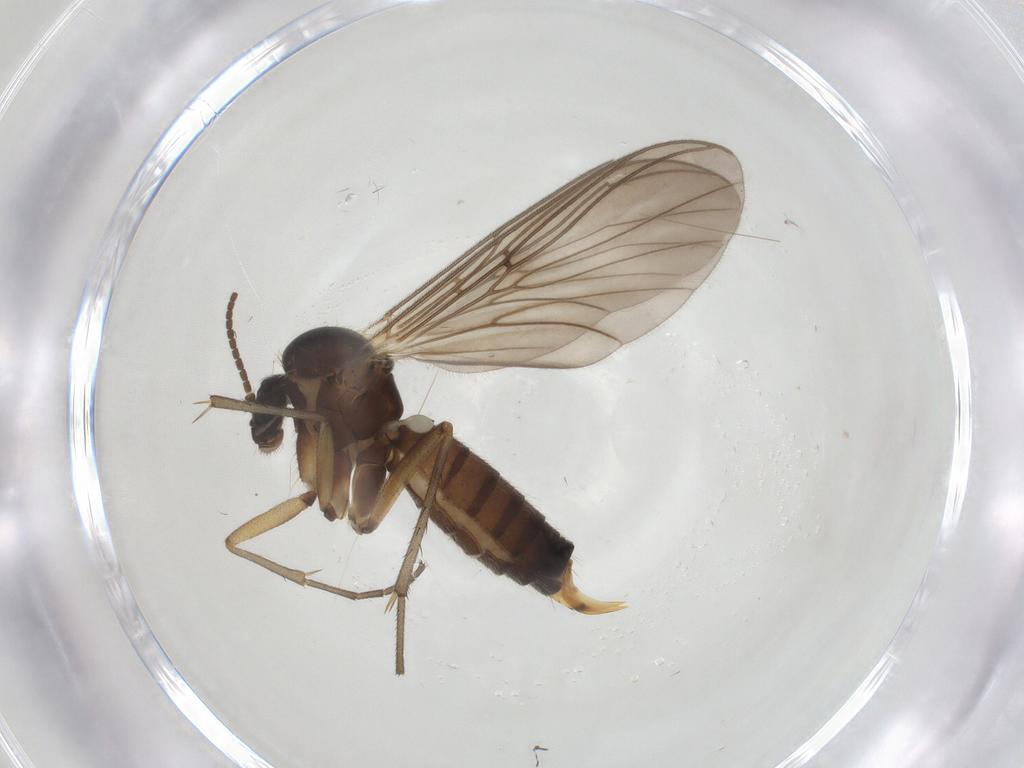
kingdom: Animalia
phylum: Arthropoda
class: Insecta
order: Diptera
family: Mycetophilidae
